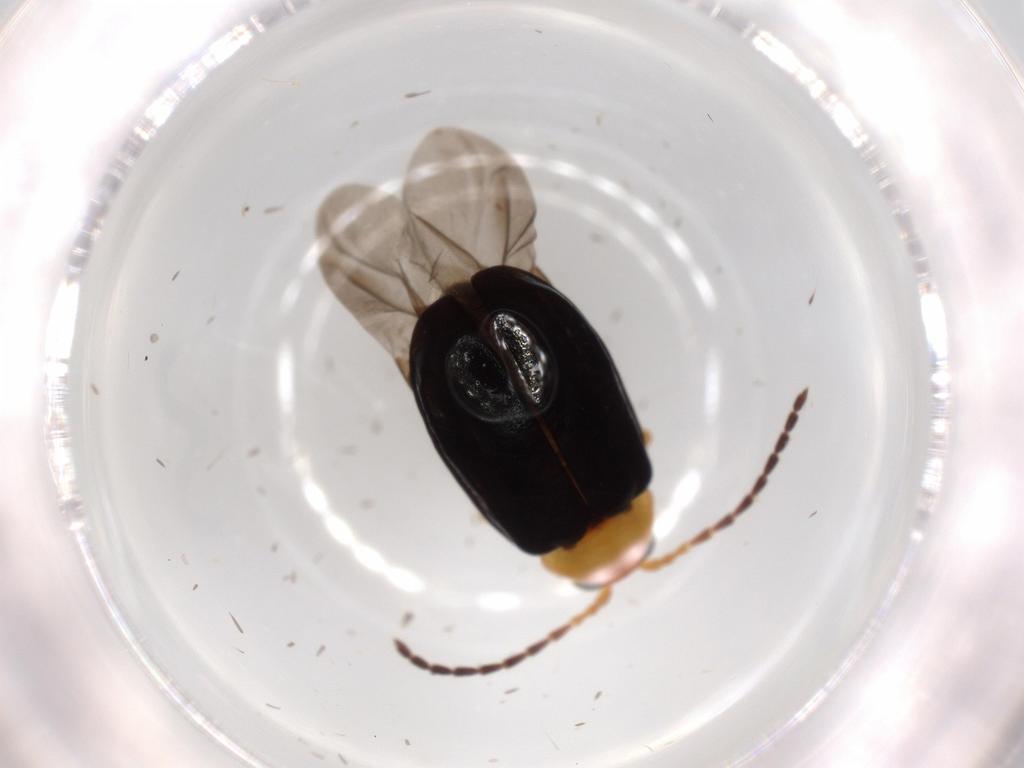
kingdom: Animalia
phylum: Arthropoda
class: Insecta
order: Coleoptera
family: Chrysomelidae
